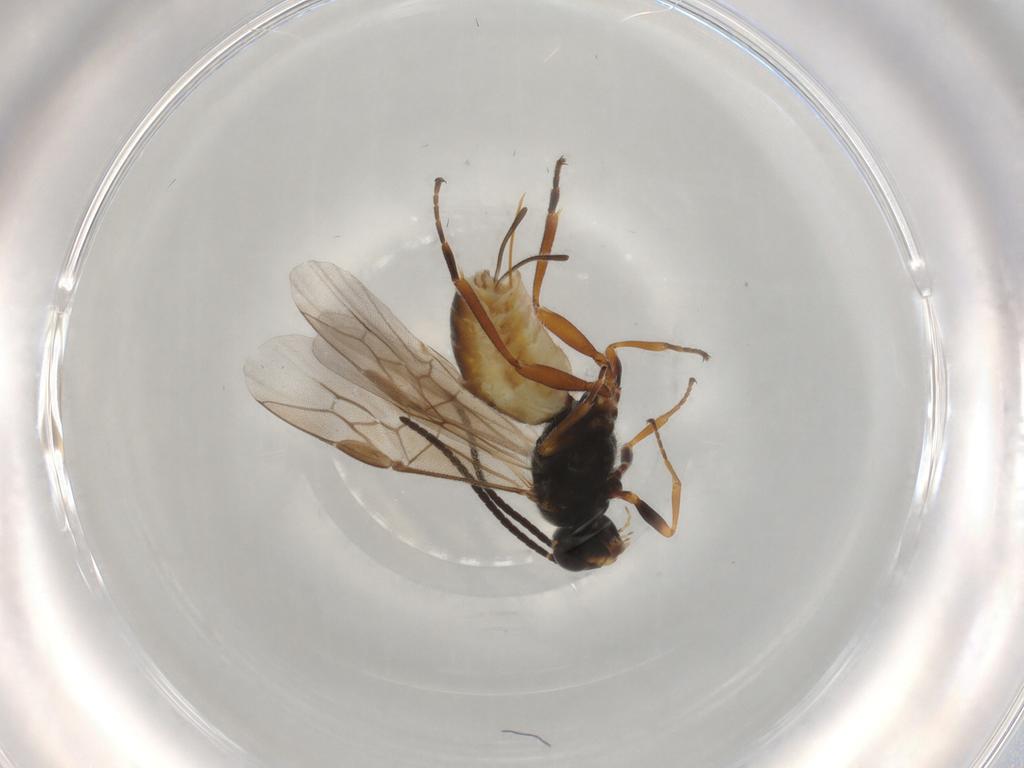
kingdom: Animalia
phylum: Arthropoda
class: Insecta
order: Hymenoptera
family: Braconidae
